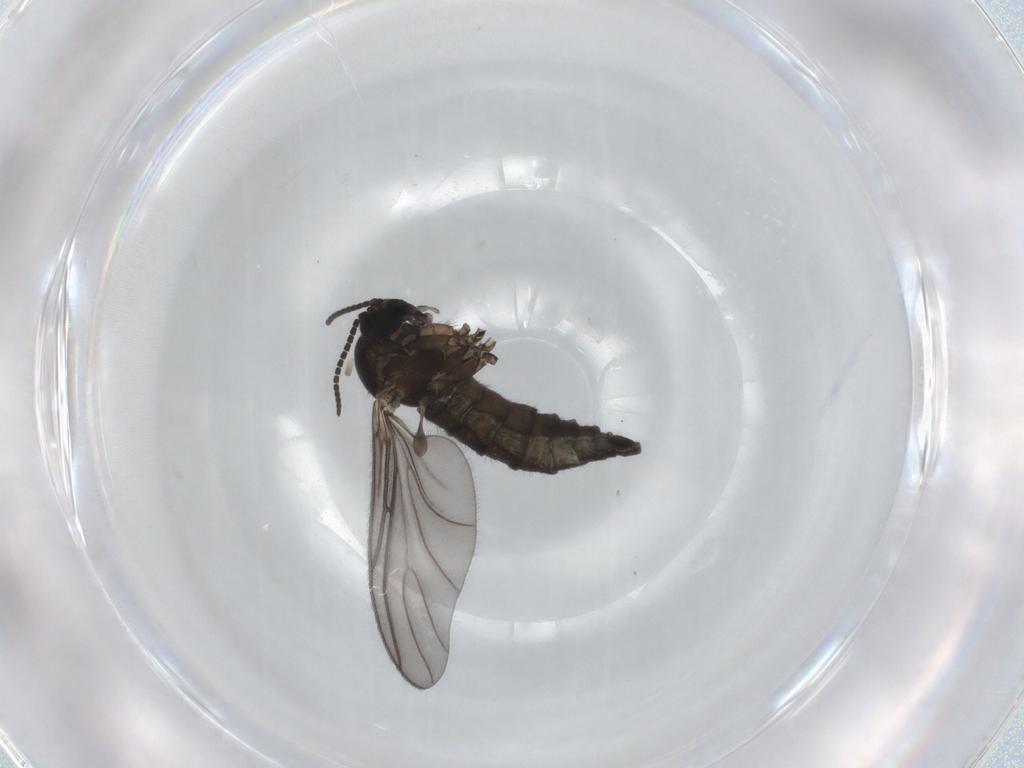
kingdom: Animalia
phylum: Arthropoda
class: Insecta
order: Diptera
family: Sciaridae
